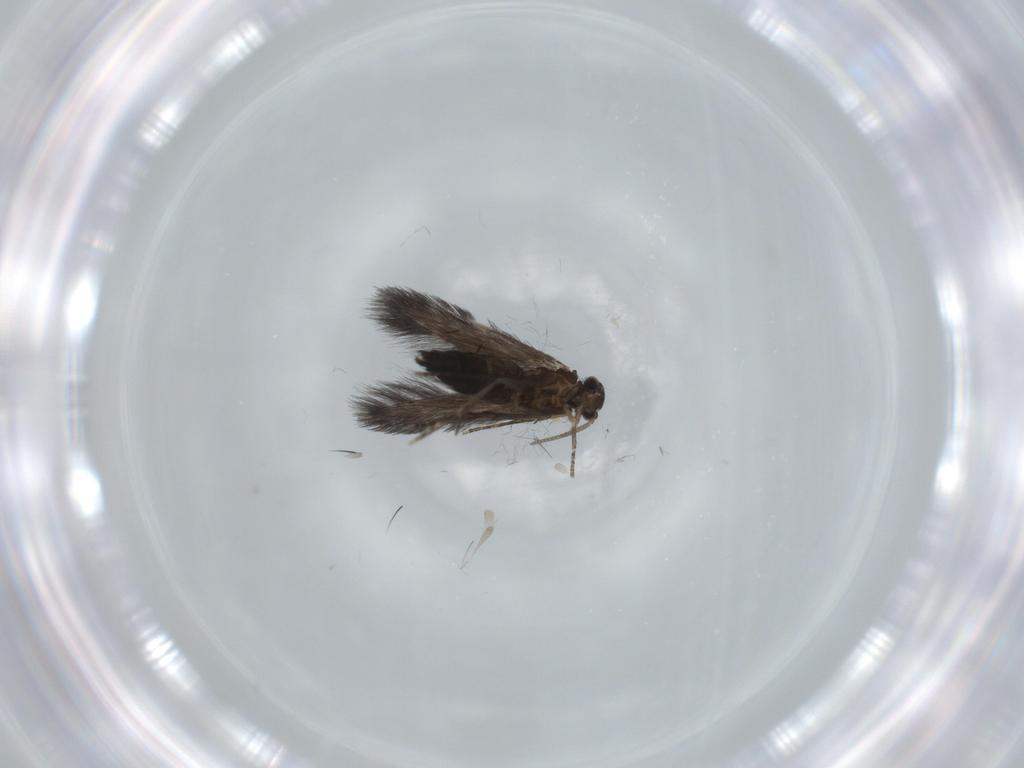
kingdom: Animalia
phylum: Arthropoda
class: Insecta
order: Trichoptera
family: Hydroptilidae
